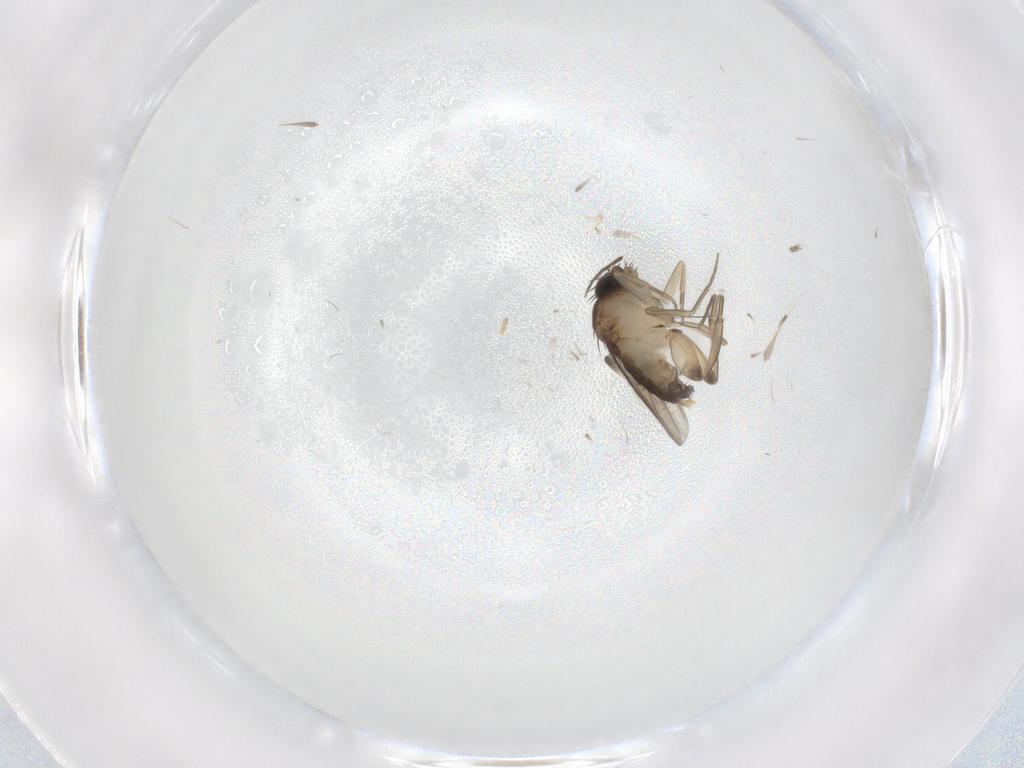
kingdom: Animalia
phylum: Arthropoda
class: Insecta
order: Diptera
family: Phoridae
